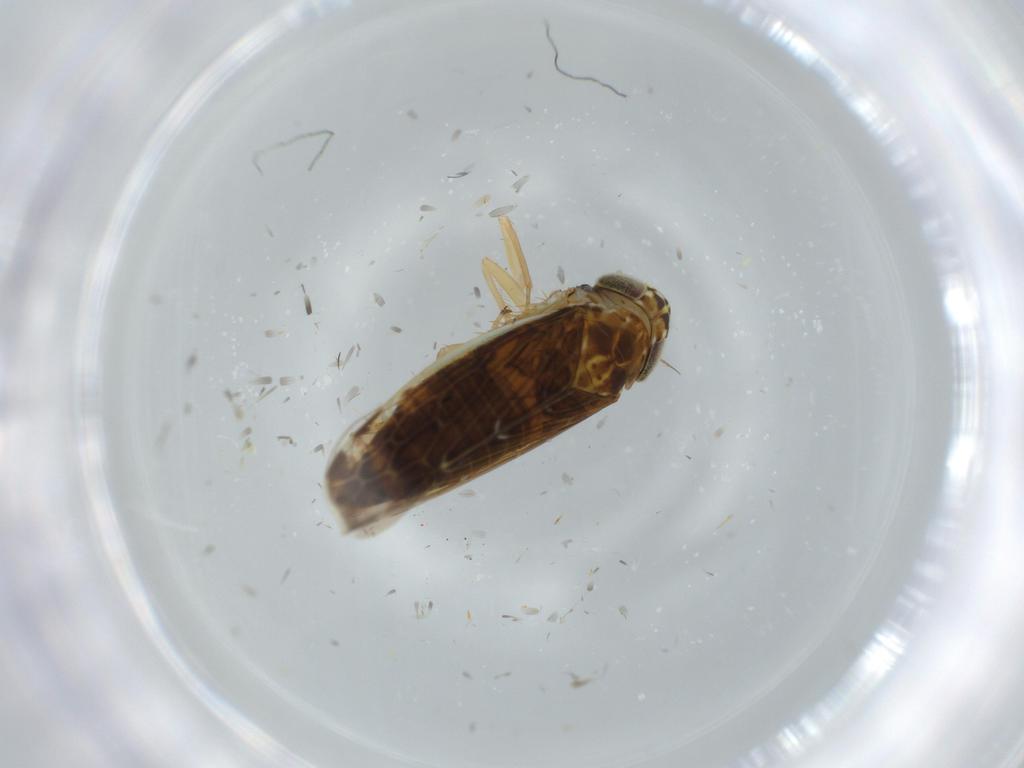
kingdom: Animalia
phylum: Arthropoda
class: Insecta
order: Hemiptera
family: Cicadellidae
